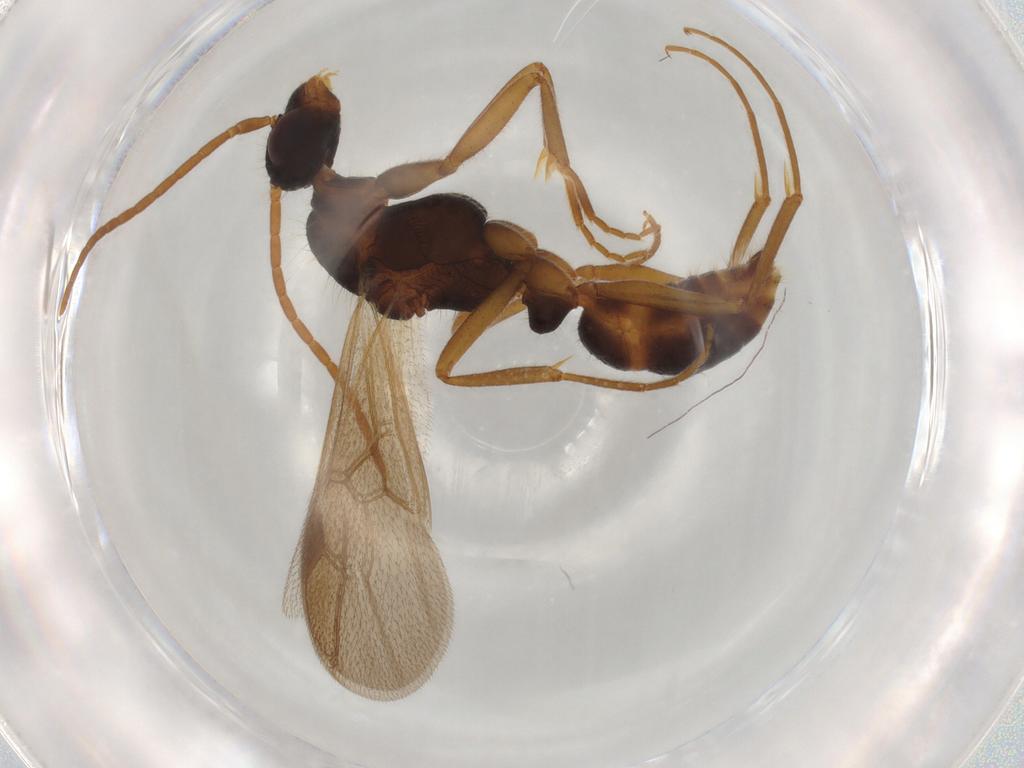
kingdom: Animalia
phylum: Arthropoda
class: Insecta
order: Hymenoptera
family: Formicidae
